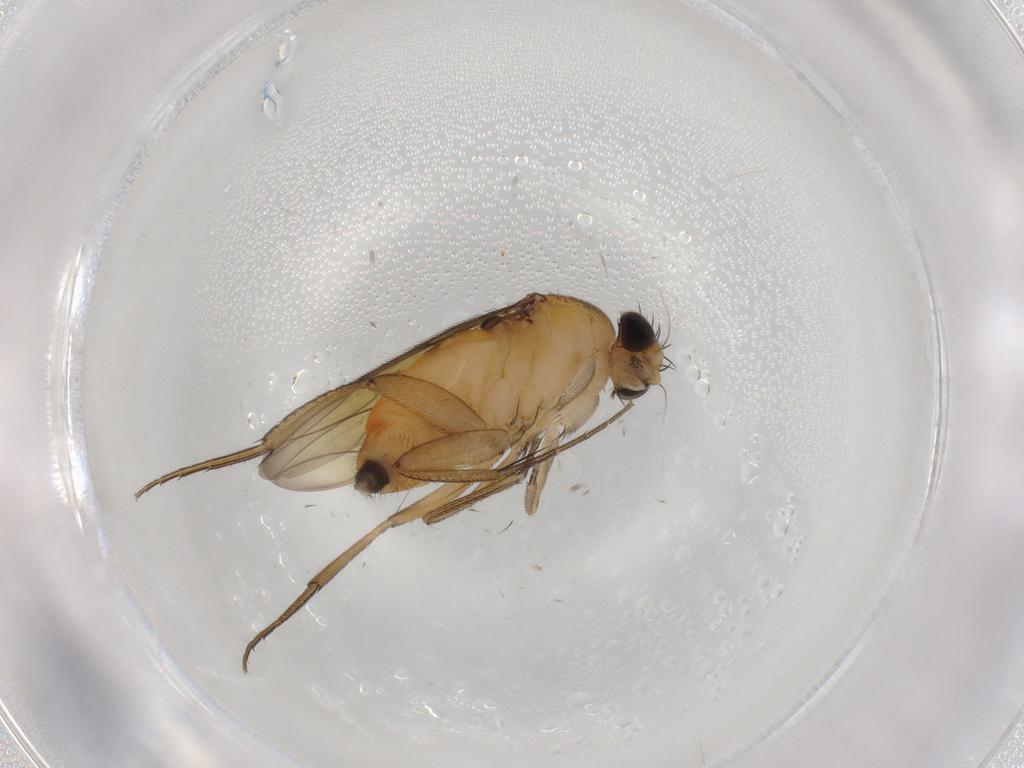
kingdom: Animalia
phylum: Arthropoda
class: Insecta
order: Diptera
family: Phoridae
